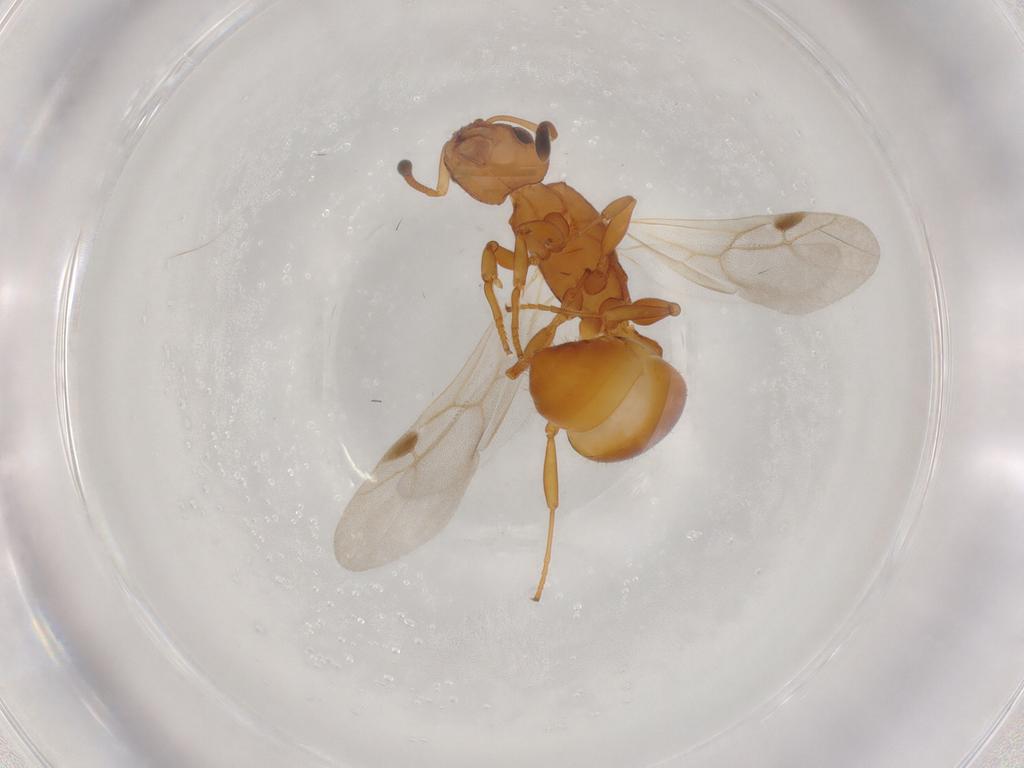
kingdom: Animalia
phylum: Arthropoda
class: Insecta
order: Hymenoptera
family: Formicidae
